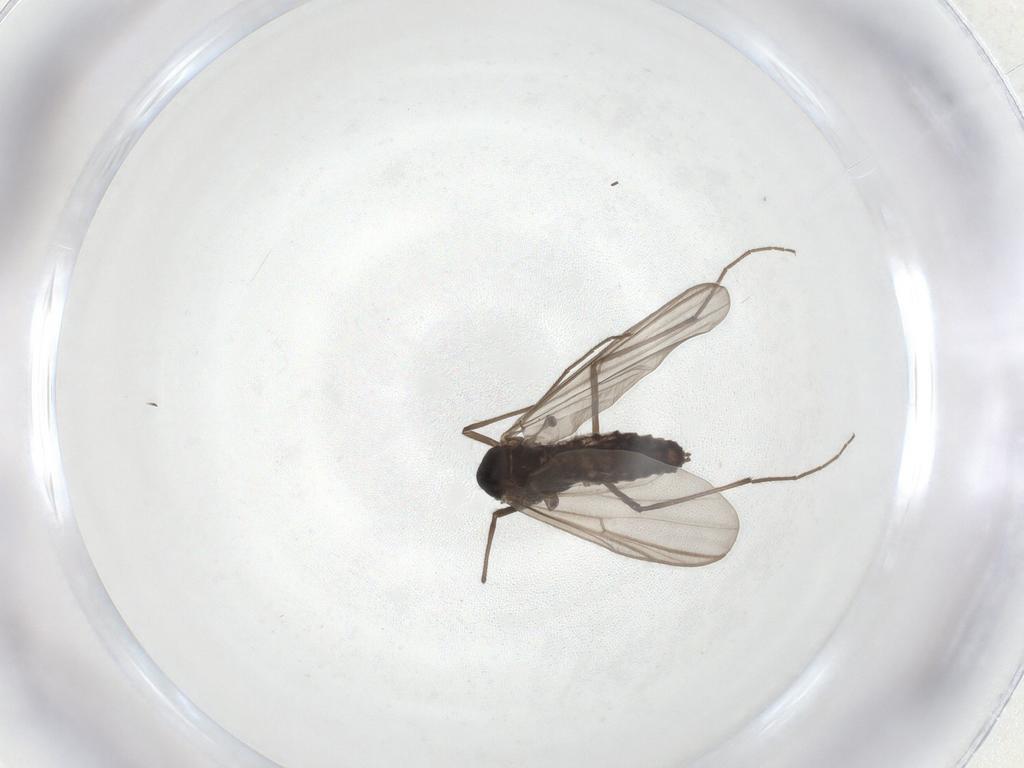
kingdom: Animalia
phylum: Arthropoda
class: Insecta
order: Diptera
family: Chironomidae
